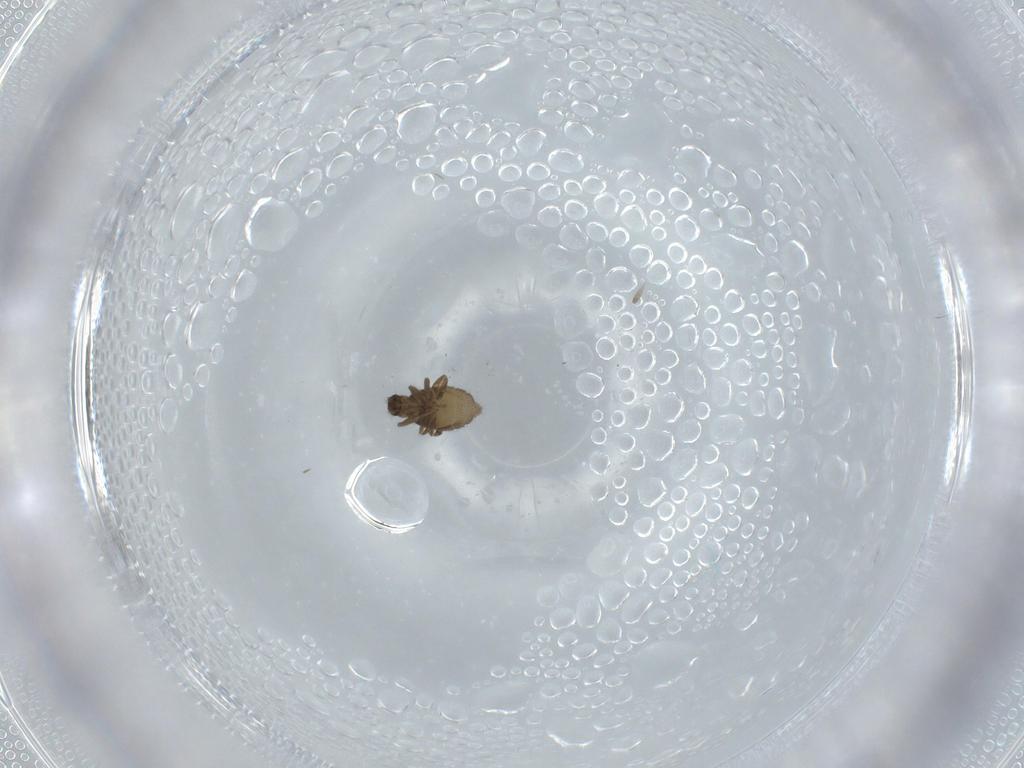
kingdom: Animalia
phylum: Arthropoda
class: Insecta
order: Diptera
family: Phoridae
